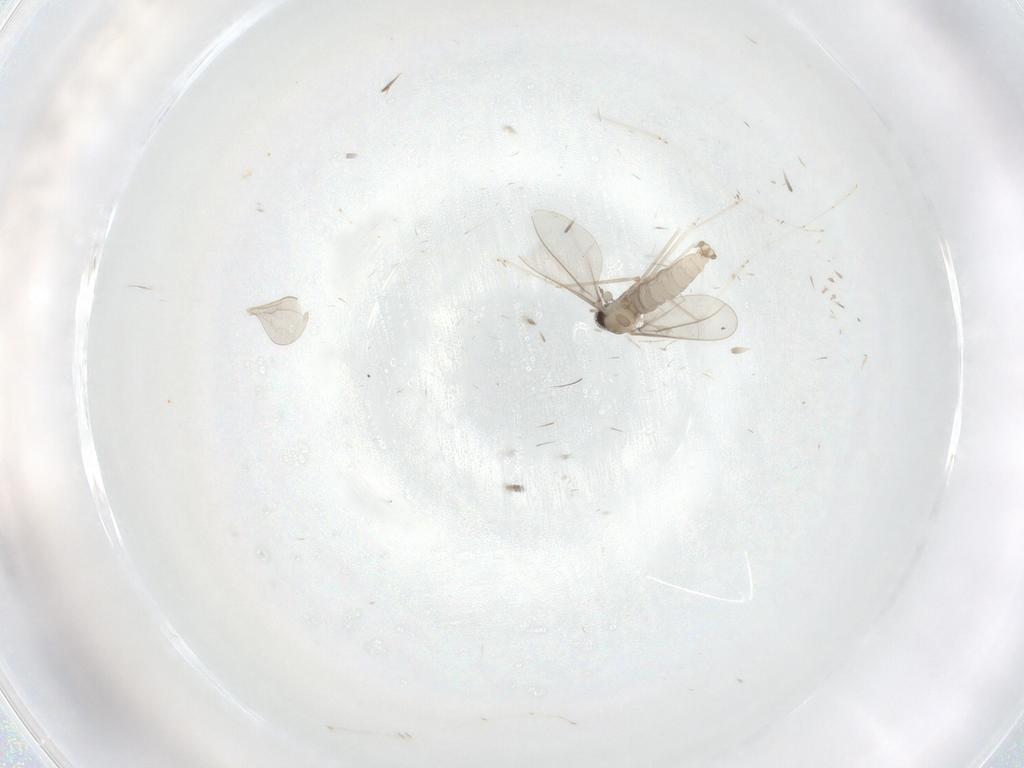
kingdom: Animalia
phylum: Arthropoda
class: Insecta
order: Diptera
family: Cecidomyiidae
